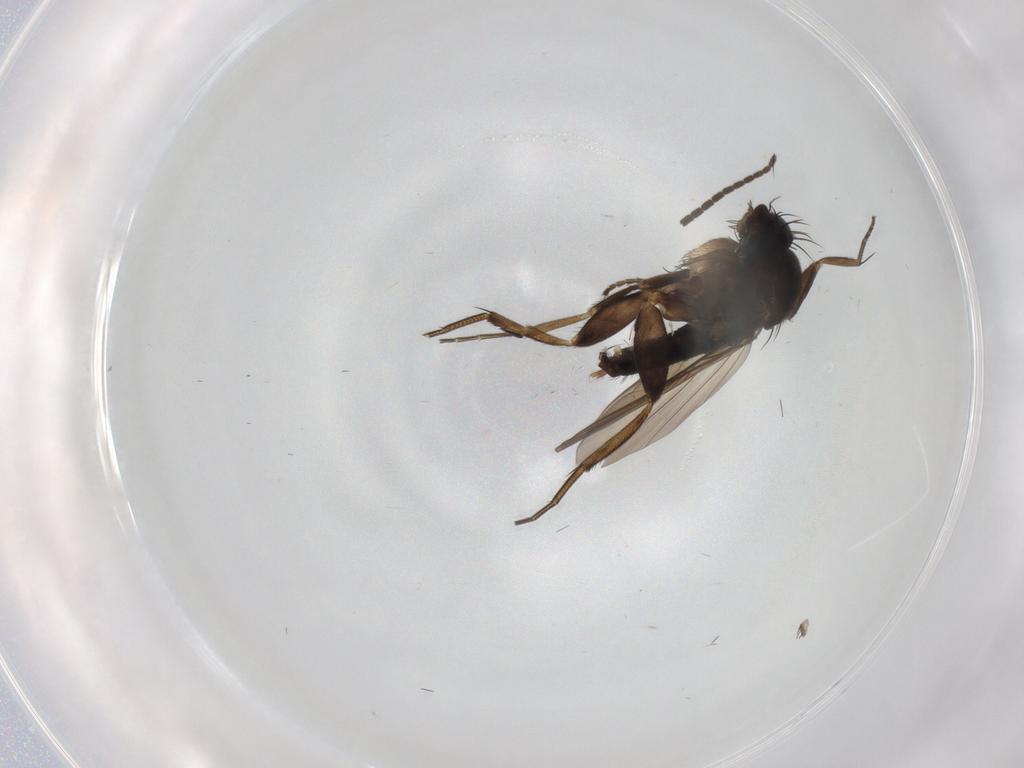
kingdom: Animalia
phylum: Arthropoda
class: Insecta
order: Diptera
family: Phoridae
